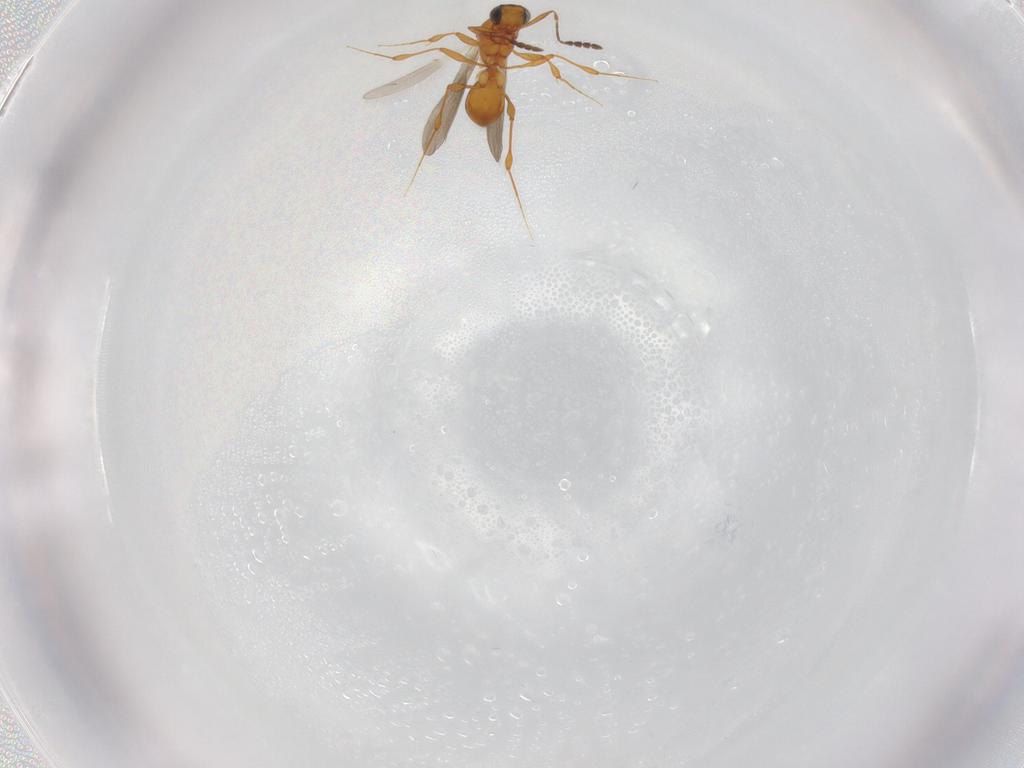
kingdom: Animalia
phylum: Arthropoda
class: Insecta
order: Hymenoptera
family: Platygastridae
